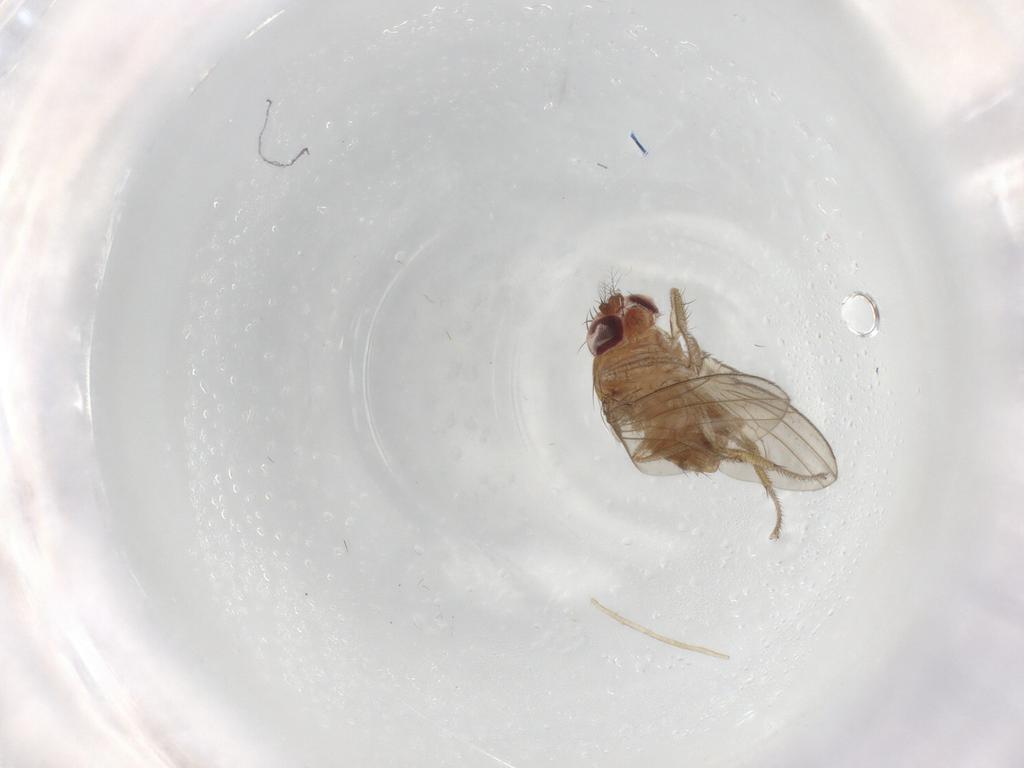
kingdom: Animalia
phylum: Arthropoda
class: Insecta
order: Diptera
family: Drosophilidae
